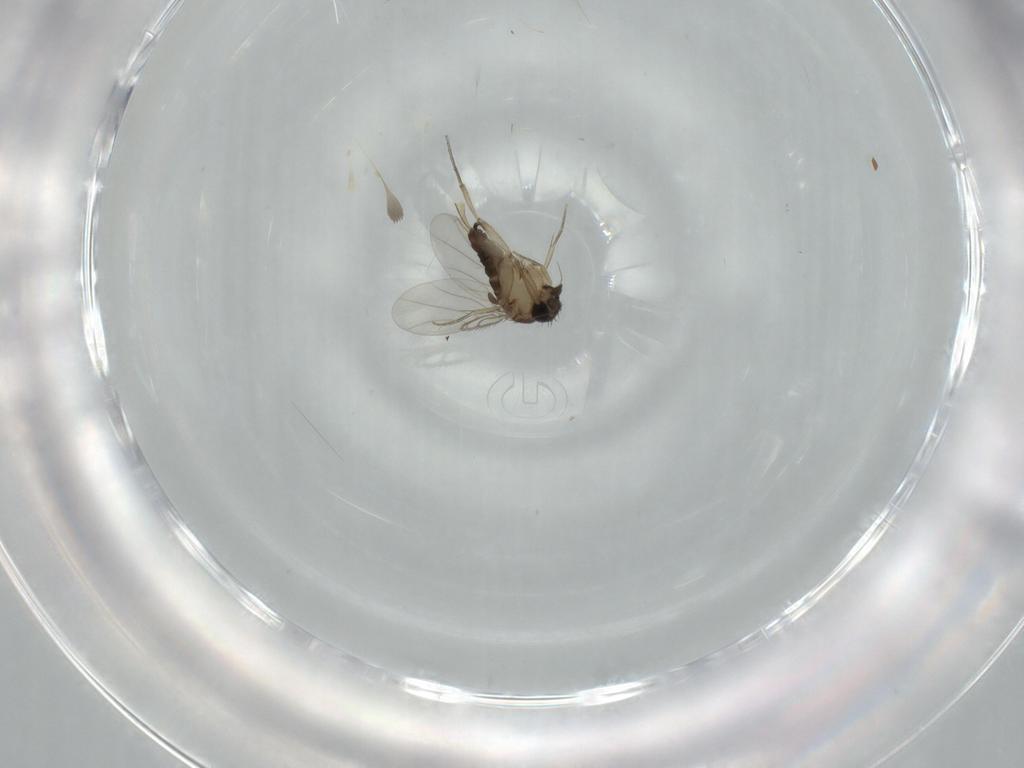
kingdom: Animalia
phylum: Arthropoda
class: Insecta
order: Diptera
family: Phoridae
